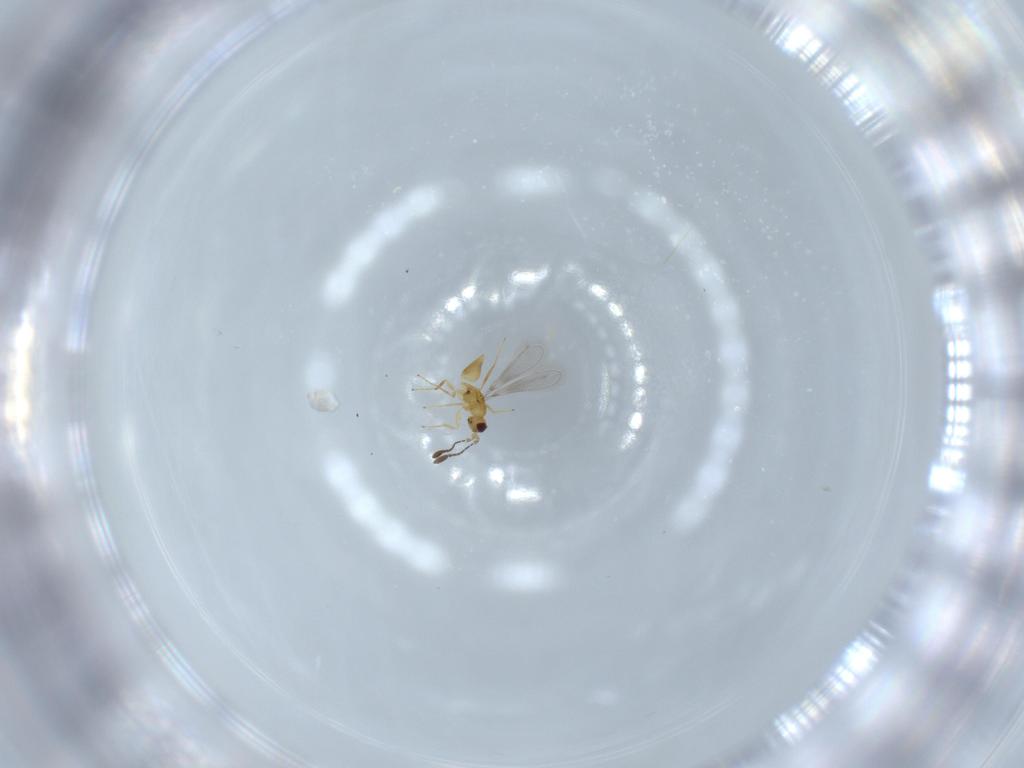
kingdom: Animalia
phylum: Arthropoda
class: Insecta
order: Hymenoptera
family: Mymaridae
